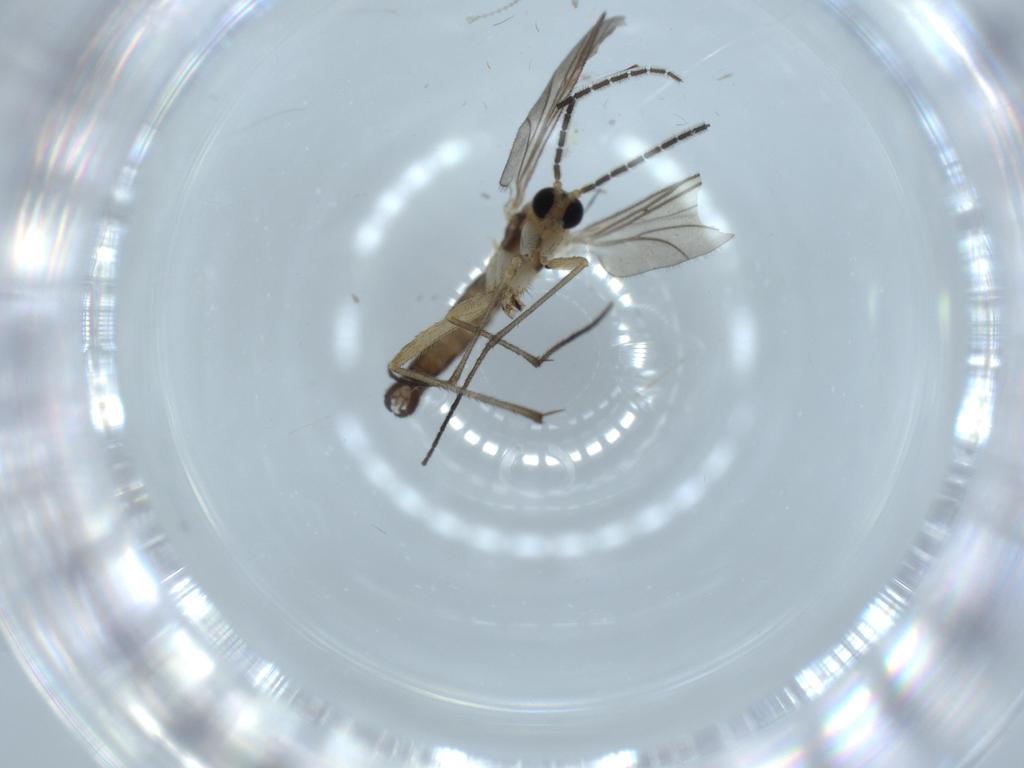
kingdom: Animalia
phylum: Arthropoda
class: Insecta
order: Diptera
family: Sciaridae
